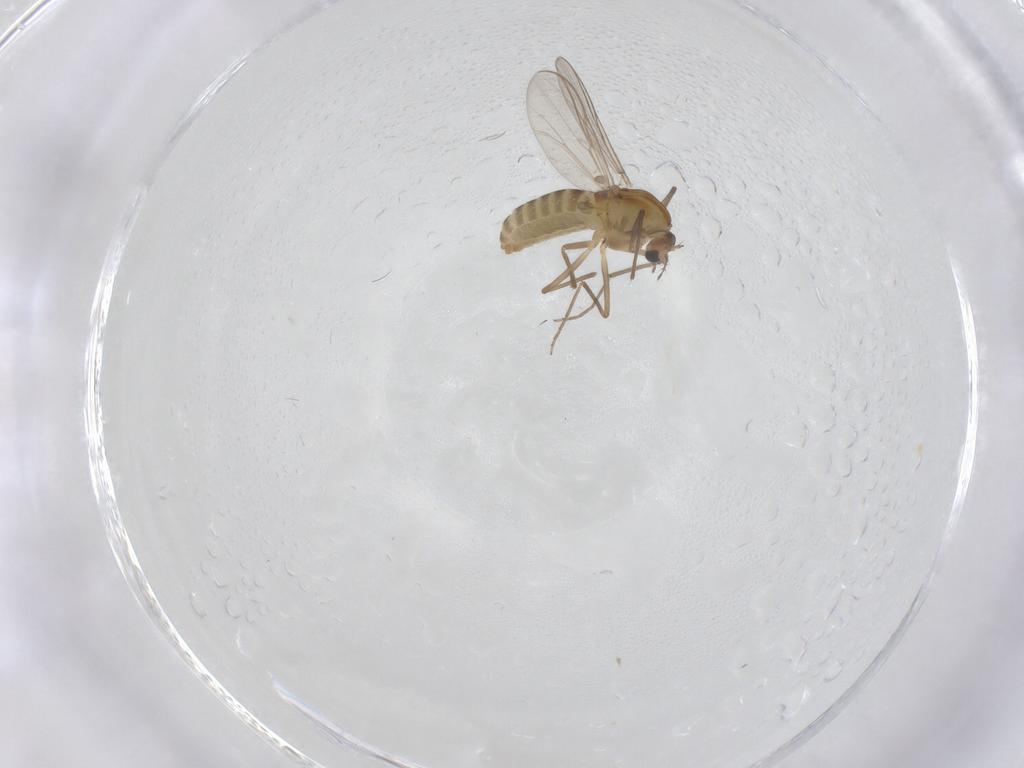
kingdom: Animalia
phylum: Arthropoda
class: Insecta
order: Diptera
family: Chironomidae
